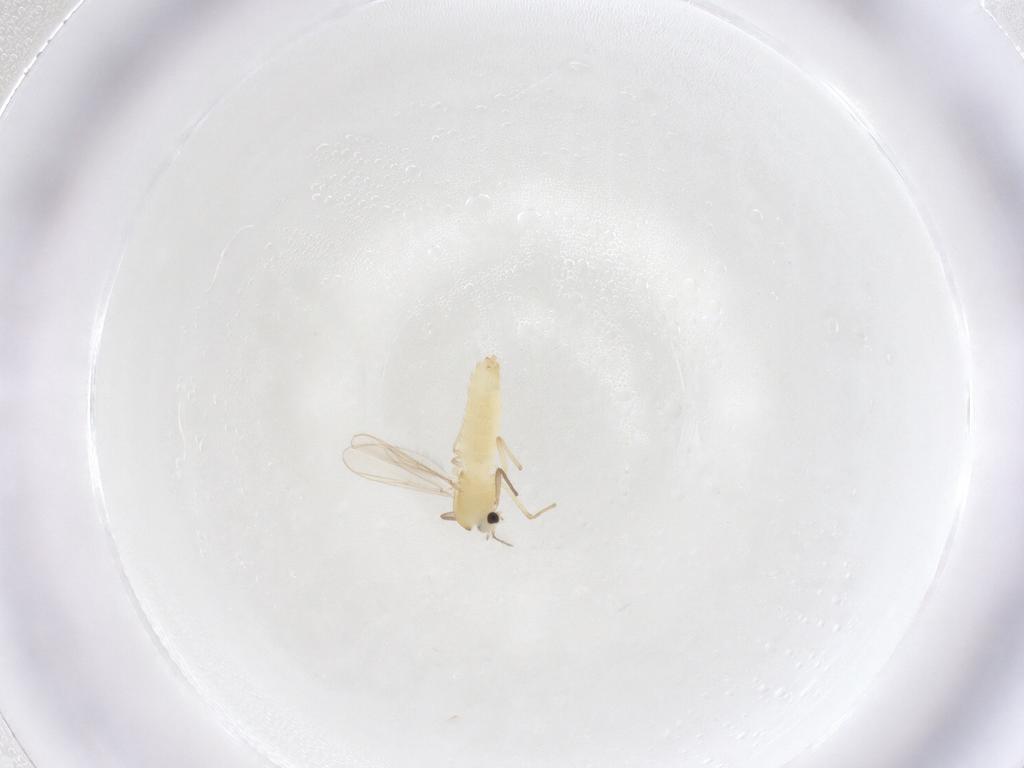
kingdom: Animalia
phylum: Arthropoda
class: Insecta
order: Diptera
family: Chironomidae
